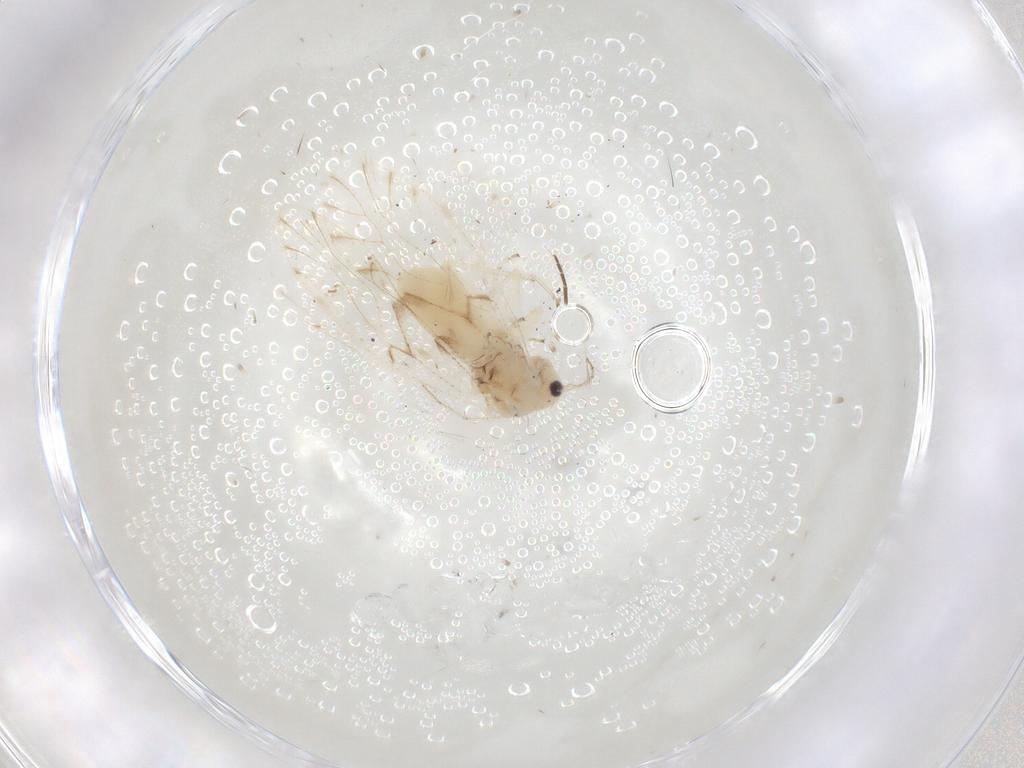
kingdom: Animalia
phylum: Arthropoda
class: Insecta
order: Psocodea
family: Trichopsocidae
